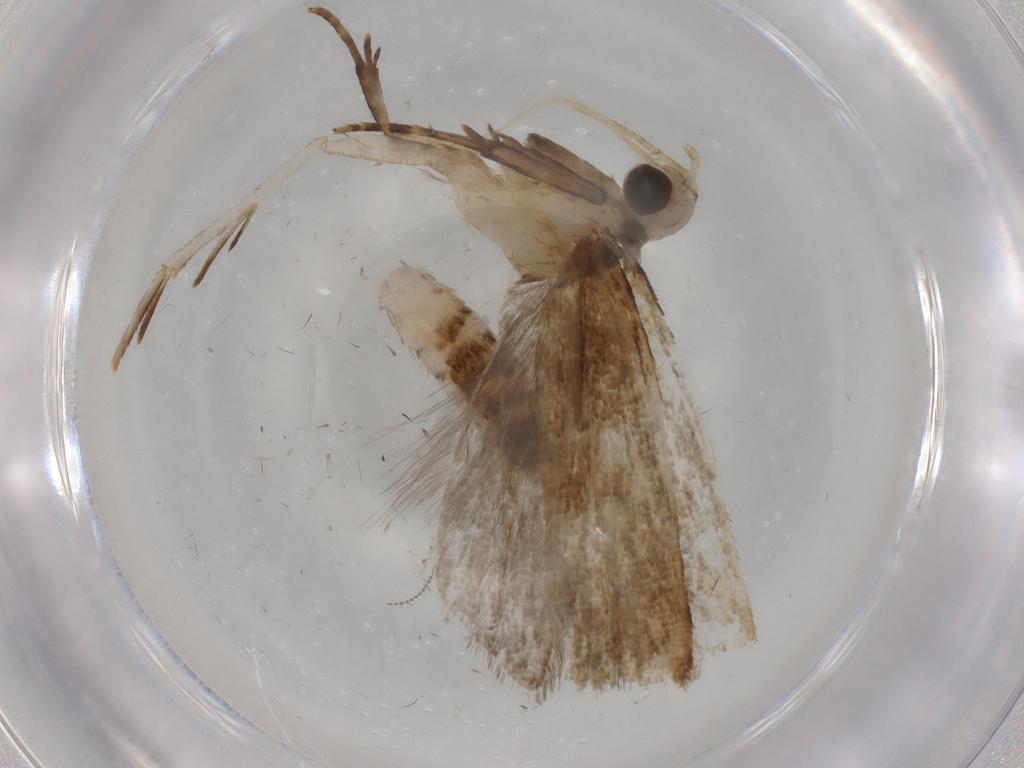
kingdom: Animalia
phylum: Arthropoda
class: Insecta
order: Lepidoptera
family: Gelechiidae
